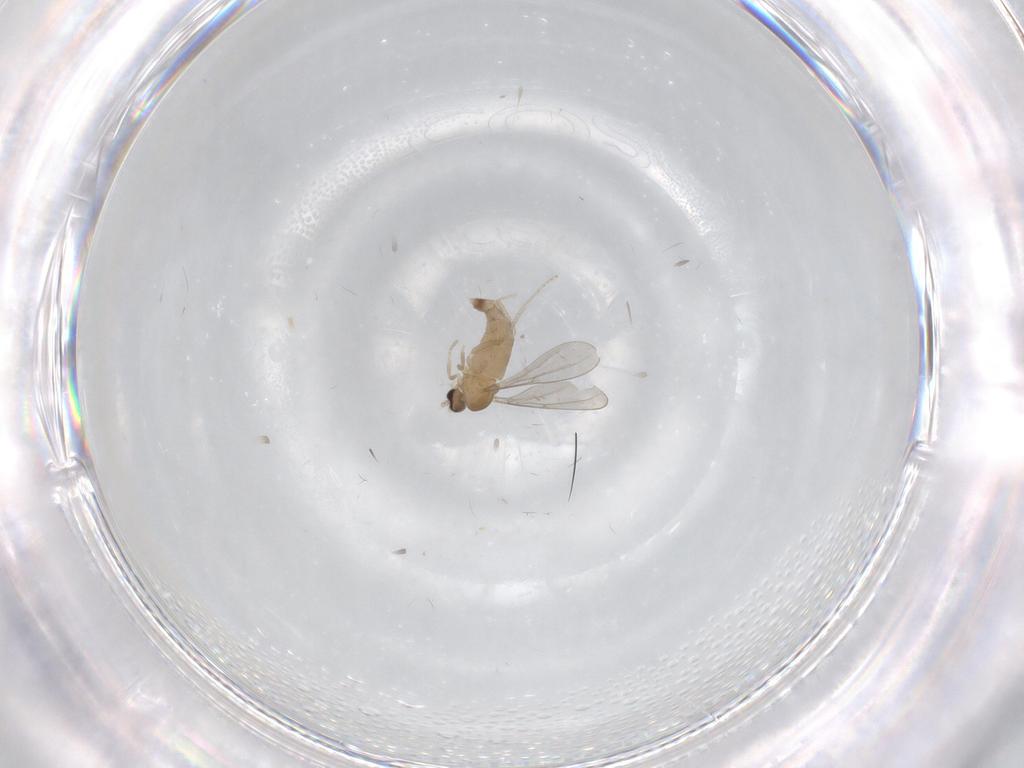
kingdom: Animalia
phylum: Arthropoda
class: Insecta
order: Diptera
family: Cecidomyiidae
